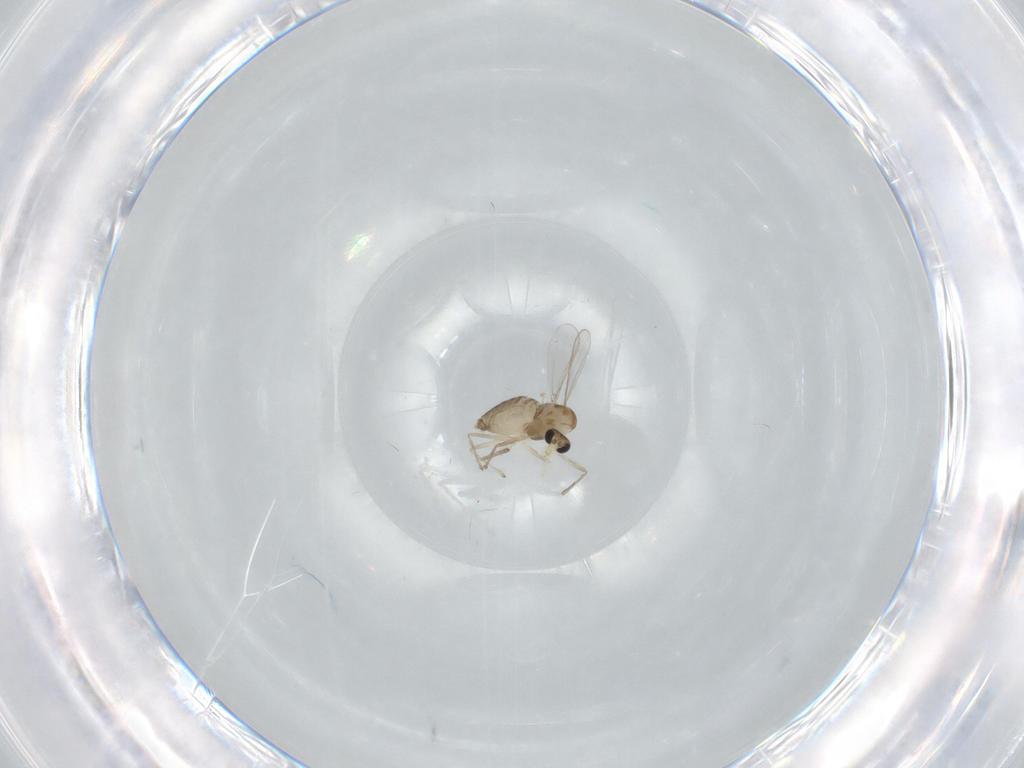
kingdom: Animalia
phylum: Arthropoda
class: Insecta
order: Diptera
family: Chironomidae
